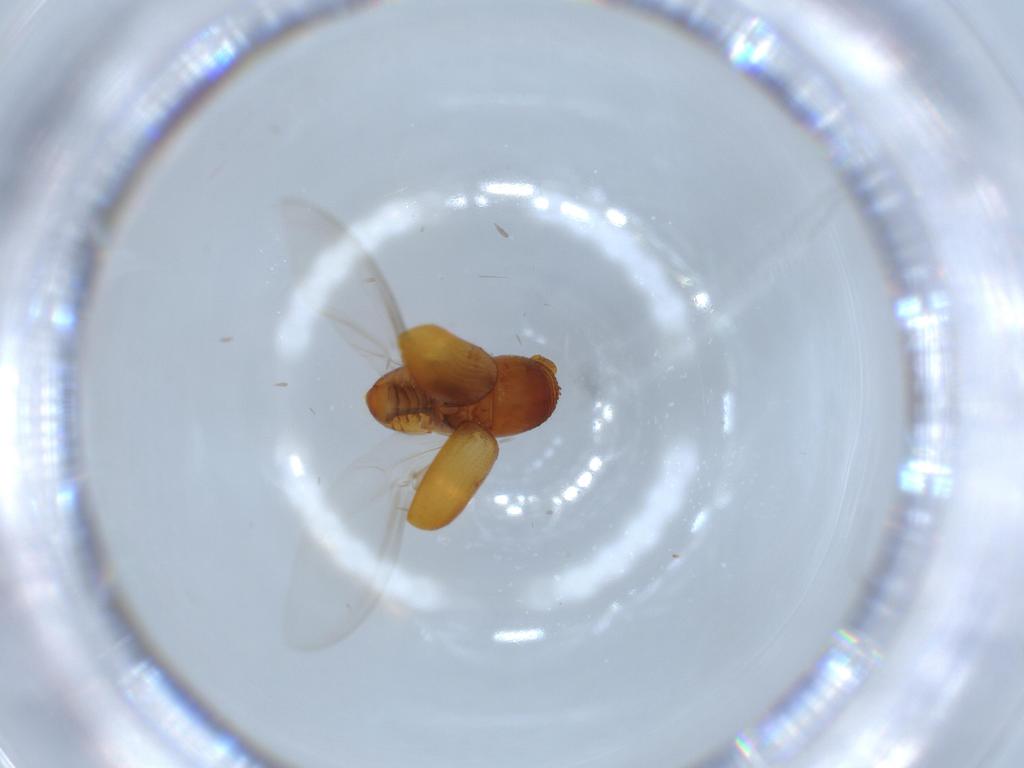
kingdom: Animalia
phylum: Arthropoda
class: Insecta
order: Coleoptera
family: Curculionidae
